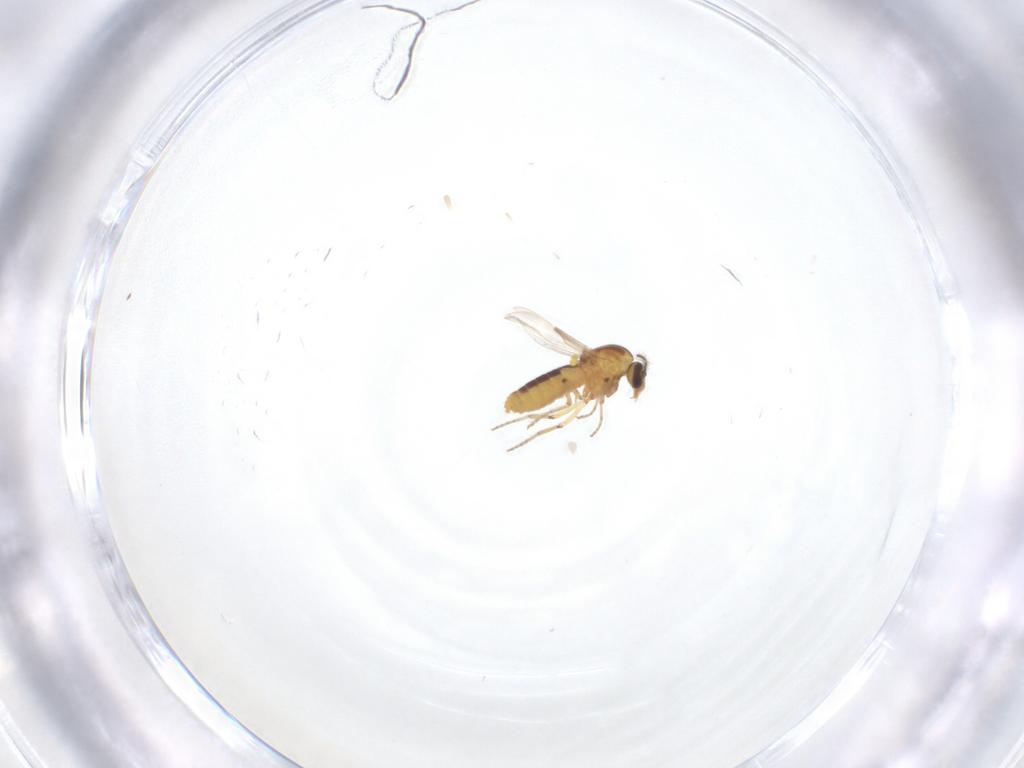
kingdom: Animalia
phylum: Arthropoda
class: Insecta
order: Diptera
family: Ceratopogonidae
